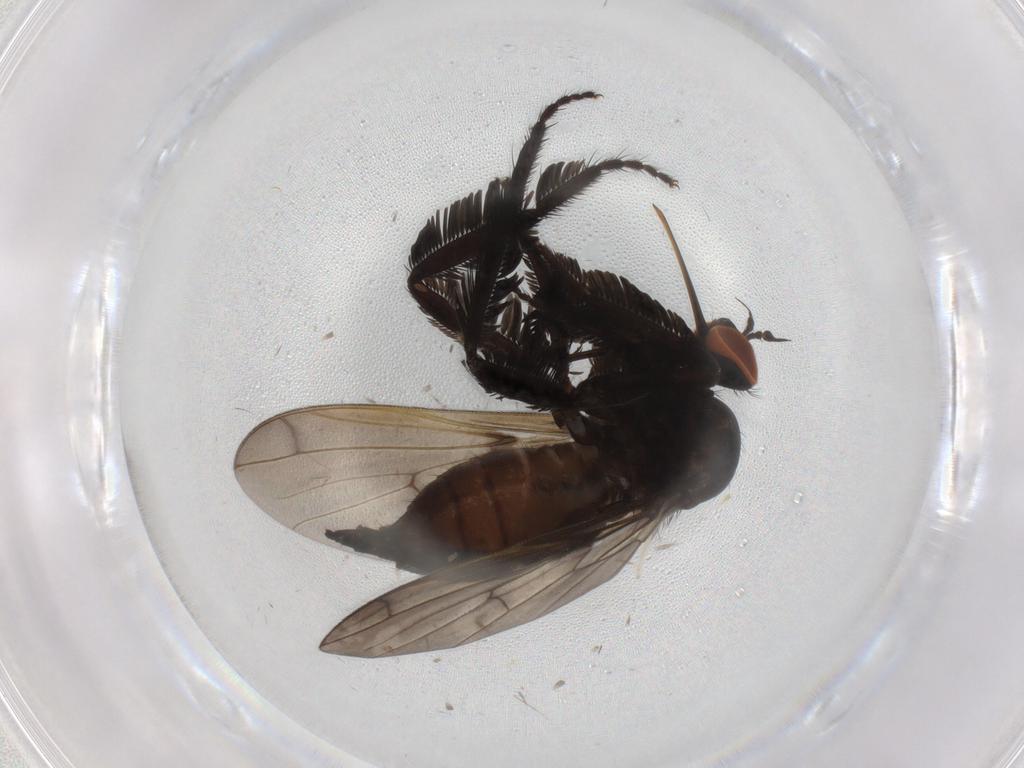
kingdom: Animalia
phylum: Arthropoda
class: Insecta
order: Diptera
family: Empididae
